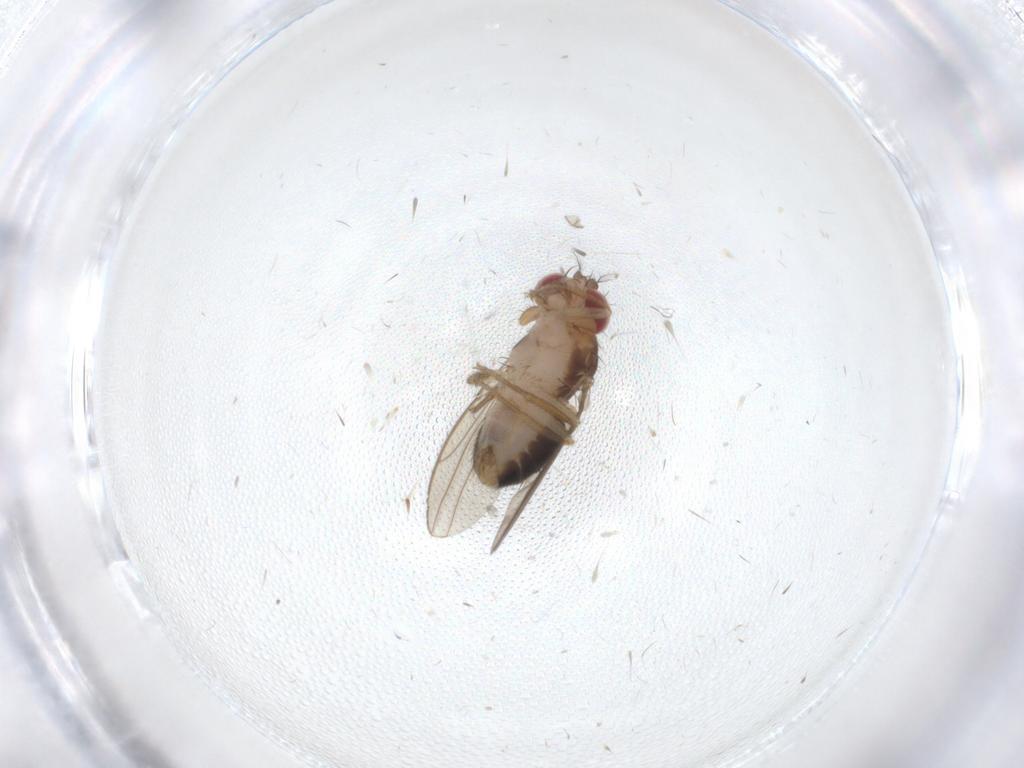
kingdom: Animalia
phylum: Arthropoda
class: Insecta
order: Diptera
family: Drosophilidae
